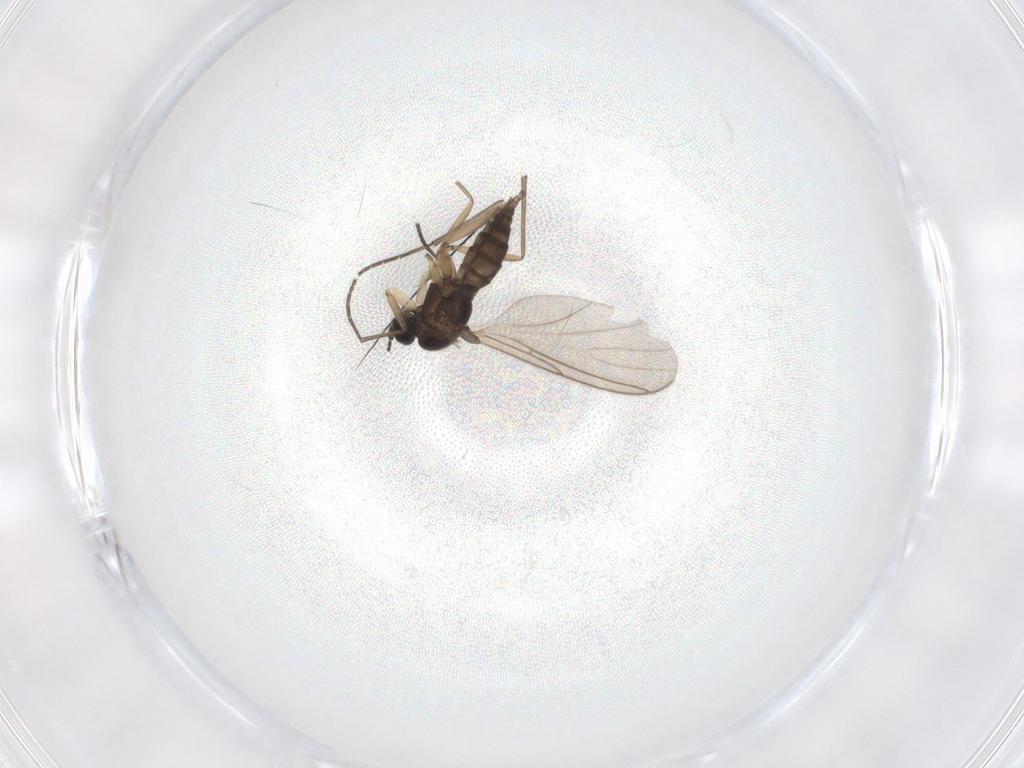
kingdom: Animalia
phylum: Arthropoda
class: Insecta
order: Diptera
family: Sciaridae
